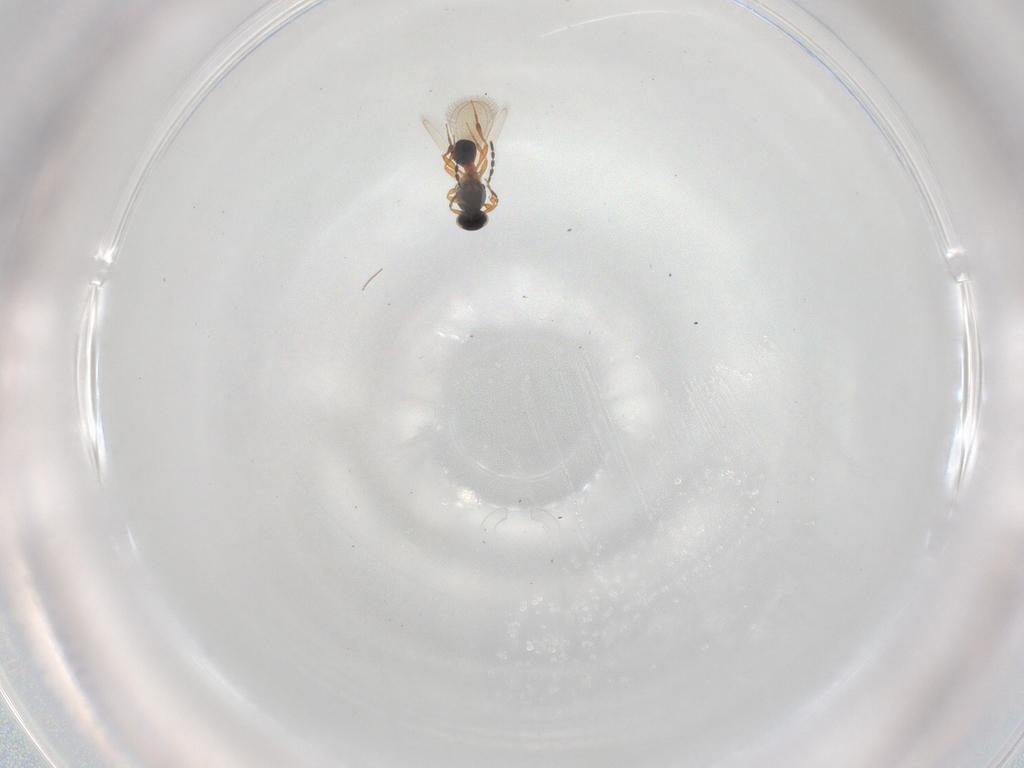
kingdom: Animalia
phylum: Arthropoda
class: Insecta
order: Hymenoptera
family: Platygastridae
